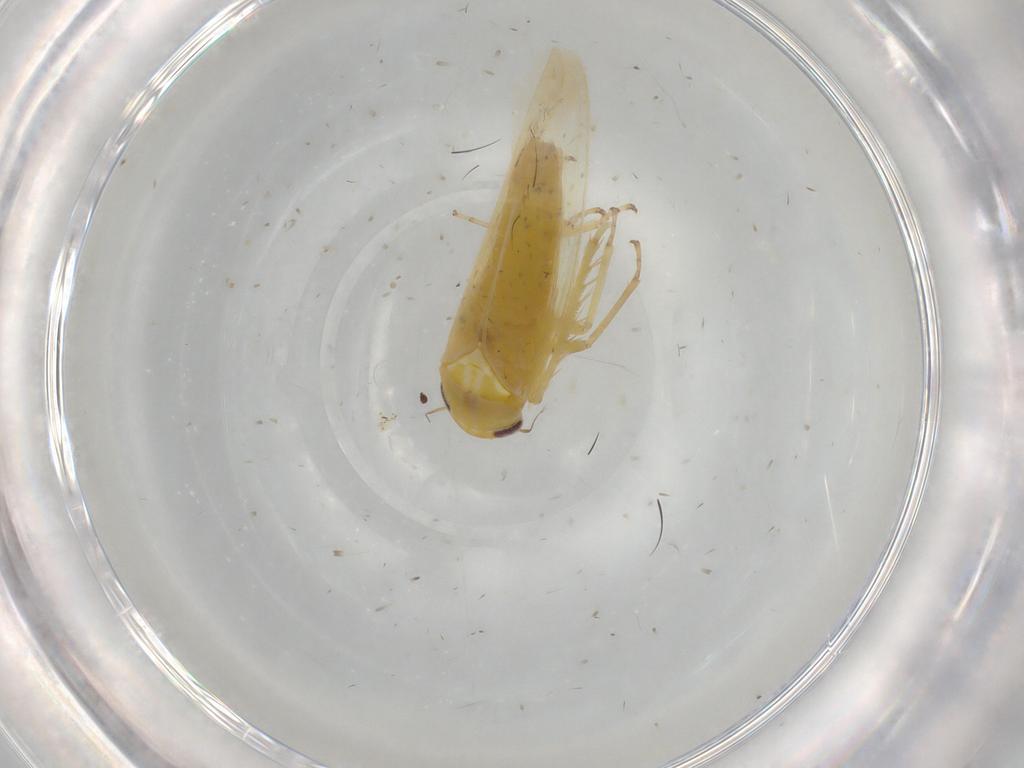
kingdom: Animalia
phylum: Arthropoda
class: Insecta
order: Hemiptera
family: Cicadellidae
